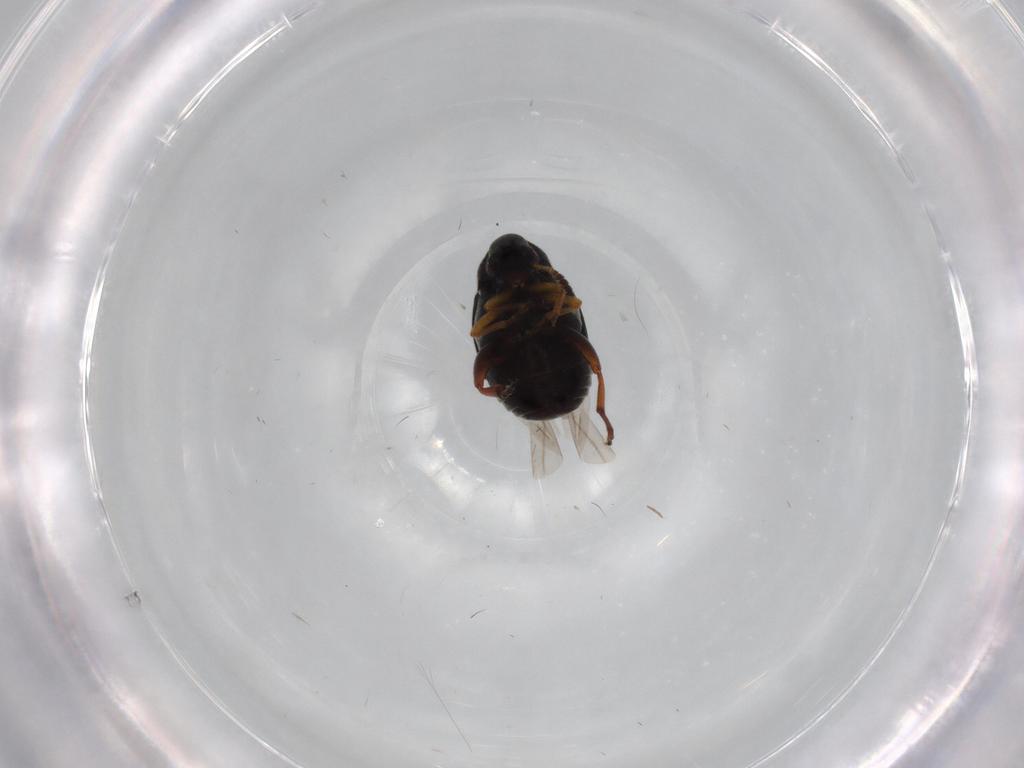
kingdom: Animalia
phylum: Arthropoda
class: Insecta
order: Coleoptera
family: Chrysomelidae
